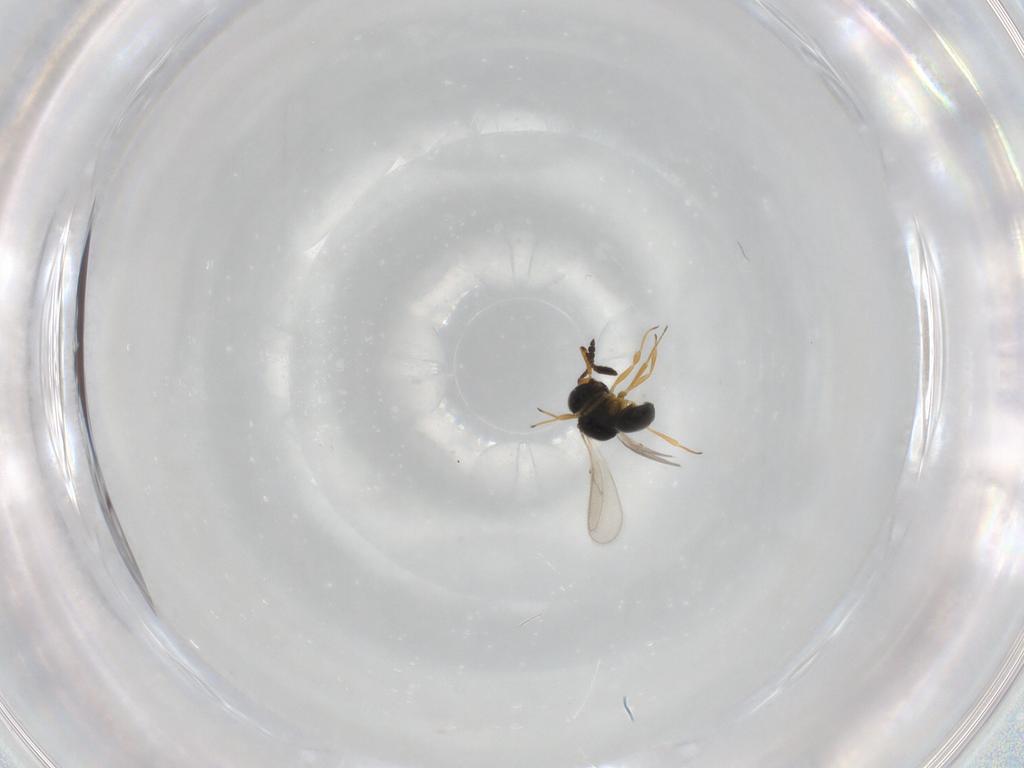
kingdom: Animalia
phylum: Arthropoda
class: Insecta
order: Hymenoptera
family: Scelionidae
